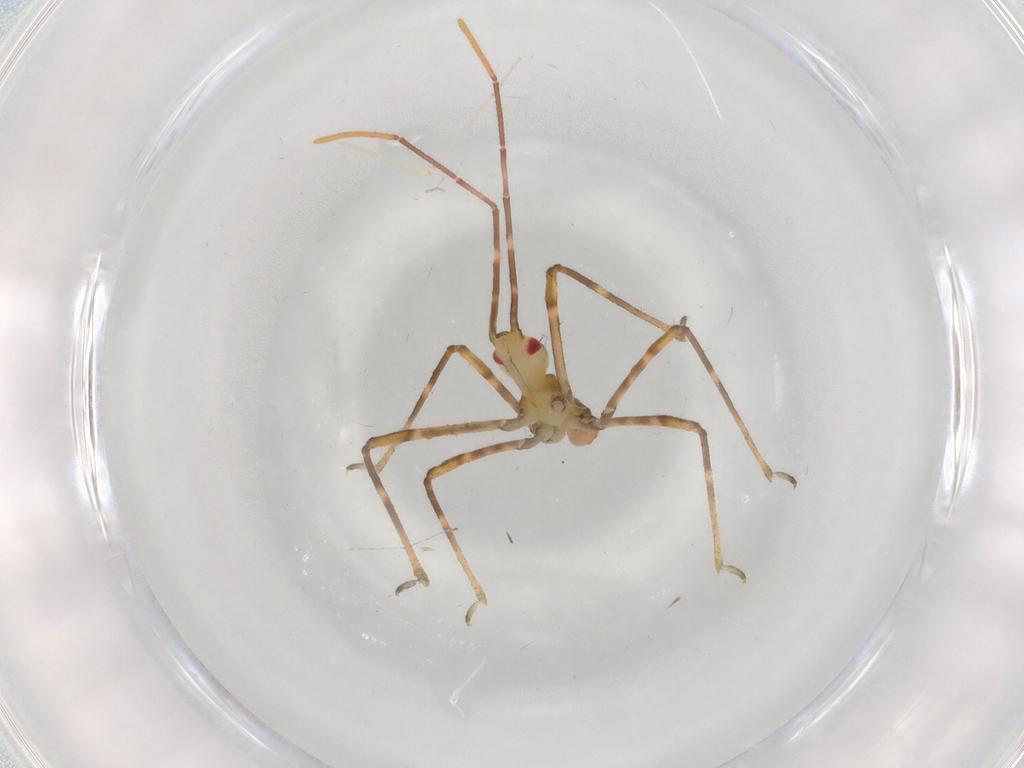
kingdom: Animalia
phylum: Arthropoda
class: Insecta
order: Hemiptera
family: Reduviidae
